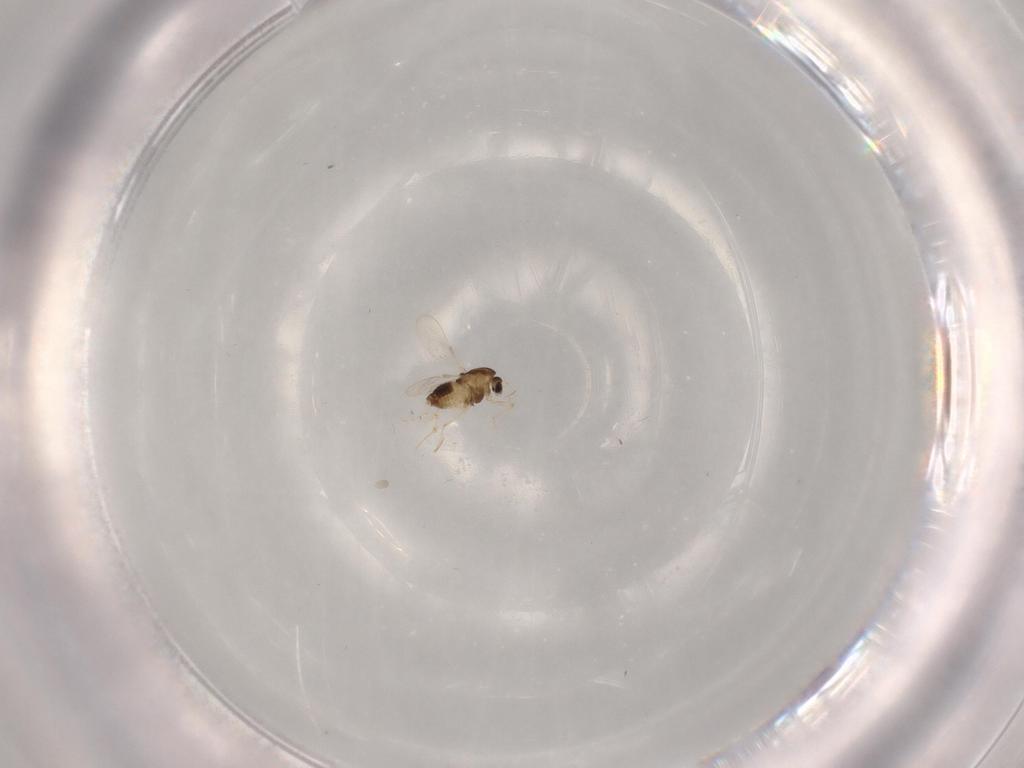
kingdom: Animalia
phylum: Arthropoda
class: Insecta
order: Diptera
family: Chironomidae
